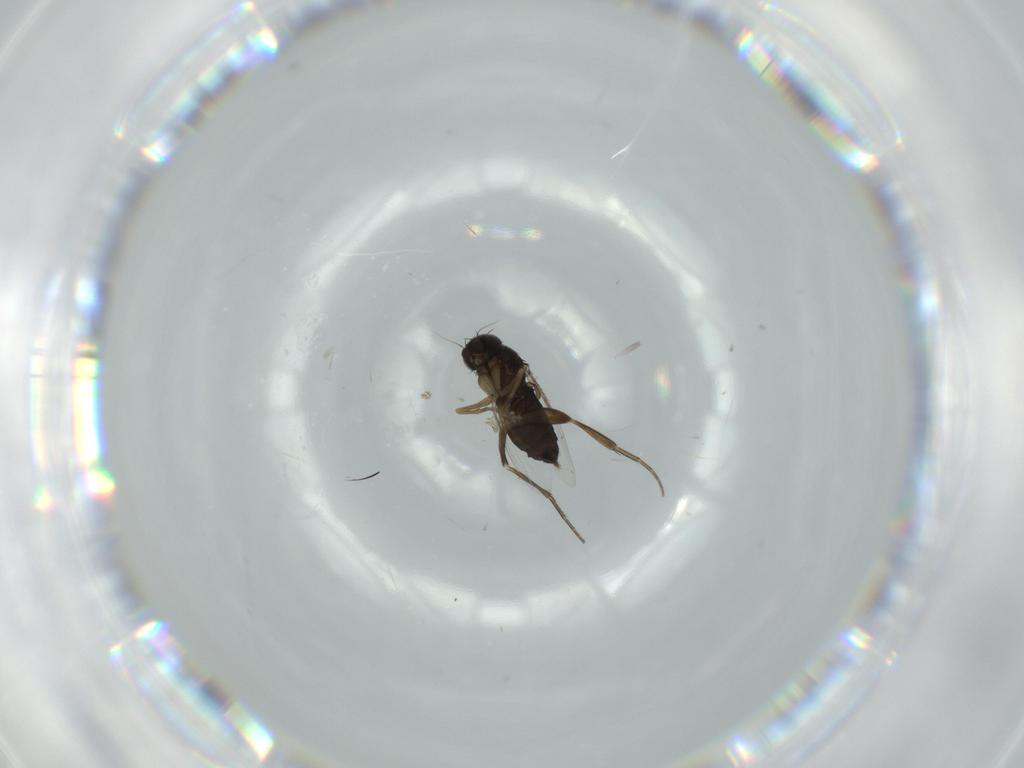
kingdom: Animalia
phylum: Arthropoda
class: Insecta
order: Diptera
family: Phoridae
